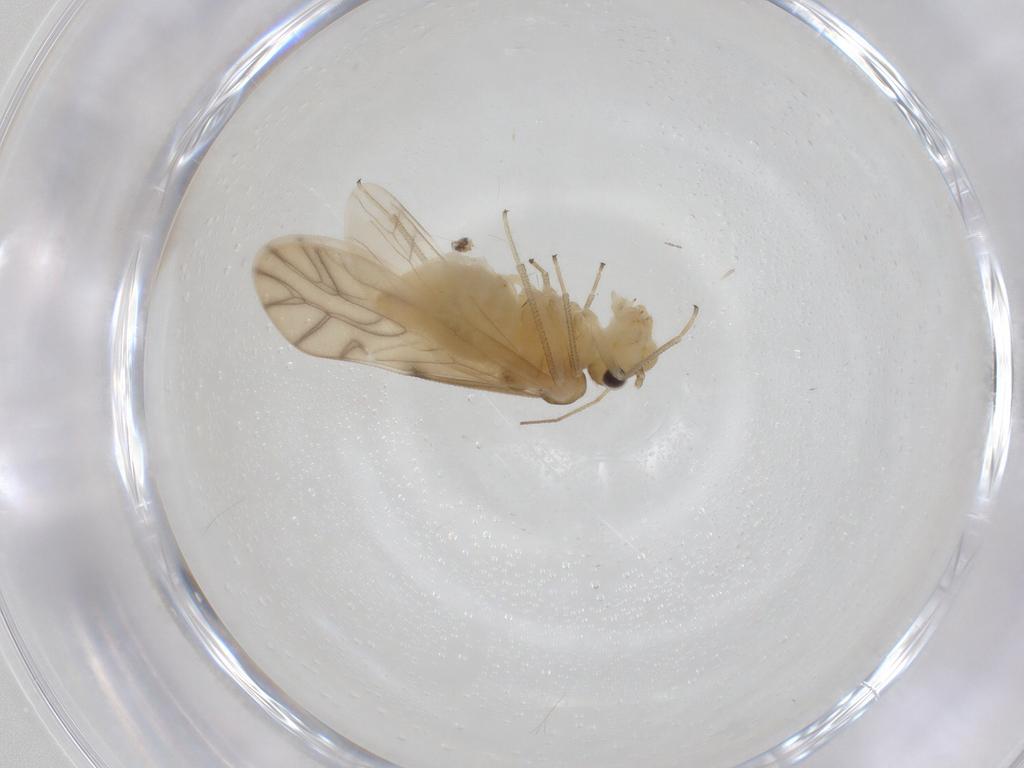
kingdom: Animalia
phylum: Arthropoda
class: Insecta
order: Psocodea
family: Caeciliusidae
